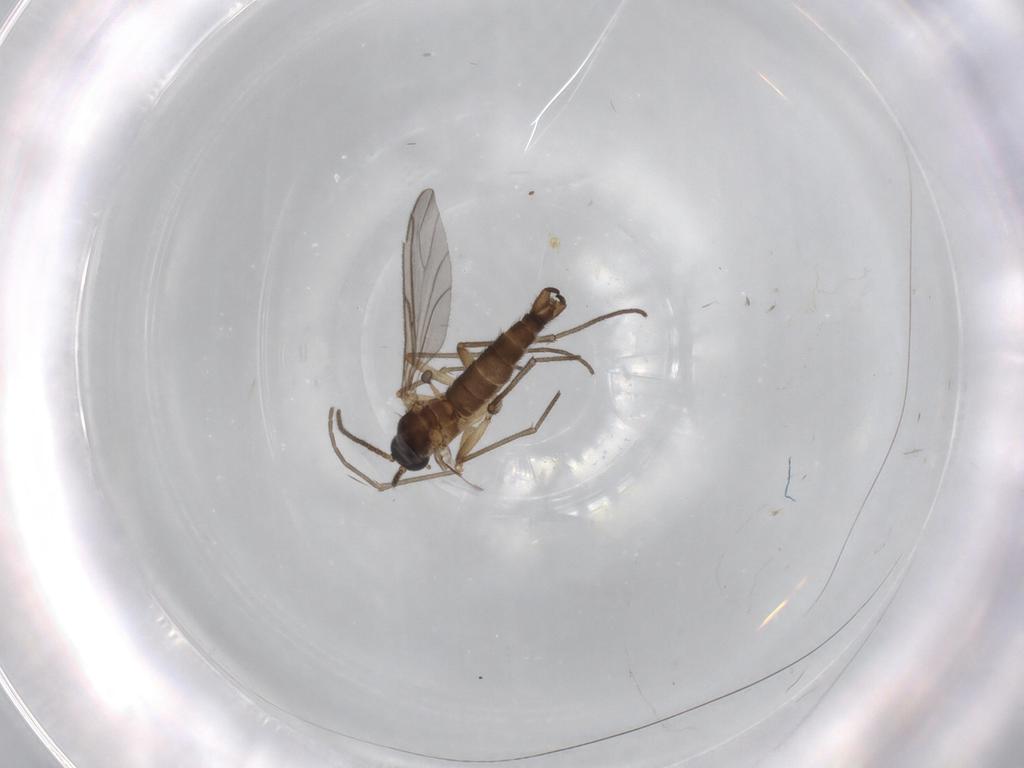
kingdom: Animalia
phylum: Arthropoda
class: Insecta
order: Diptera
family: Sciaridae
